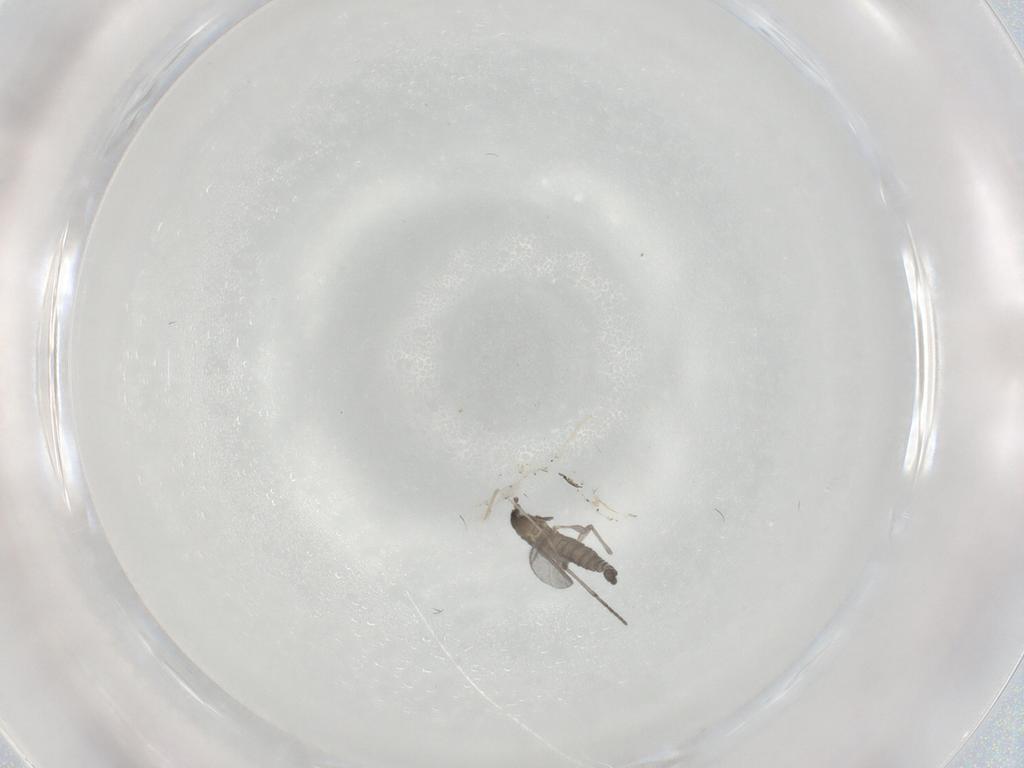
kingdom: Animalia
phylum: Arthropoda
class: Insecta
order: Diptera
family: Sciaridae
